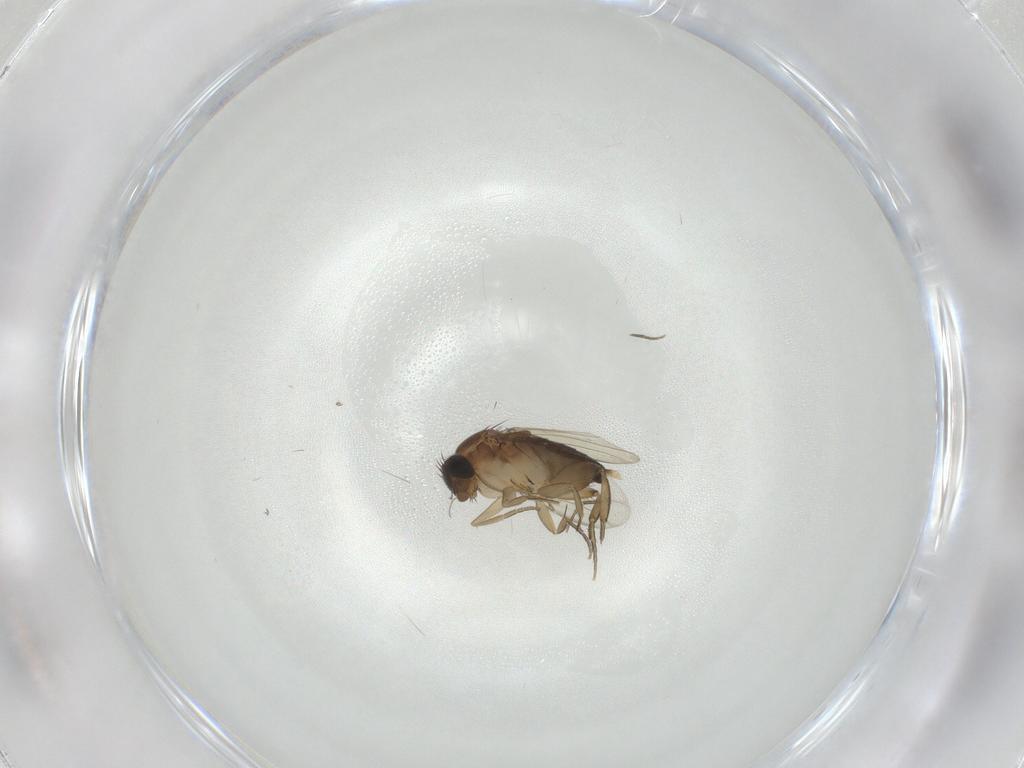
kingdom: Animalia
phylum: Arthropoda
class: Insecta
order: Diptera
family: Phoridae
